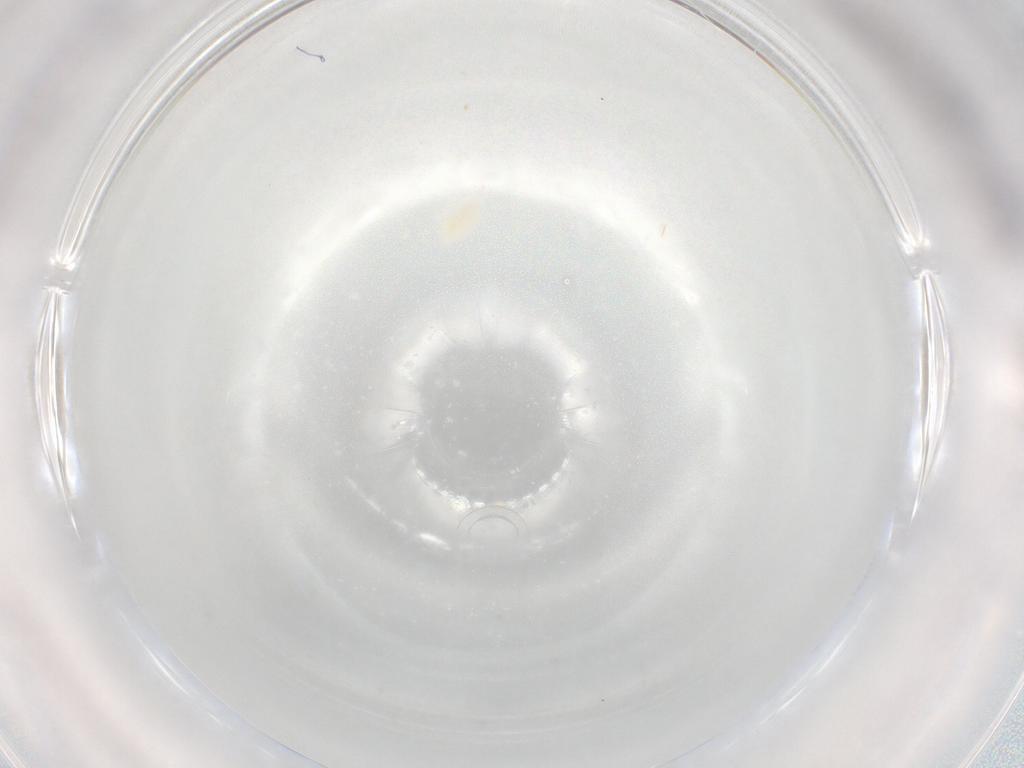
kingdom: Animalia
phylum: Arthropoda
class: Arachnida
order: Trombidiformes
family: Eupodidae
